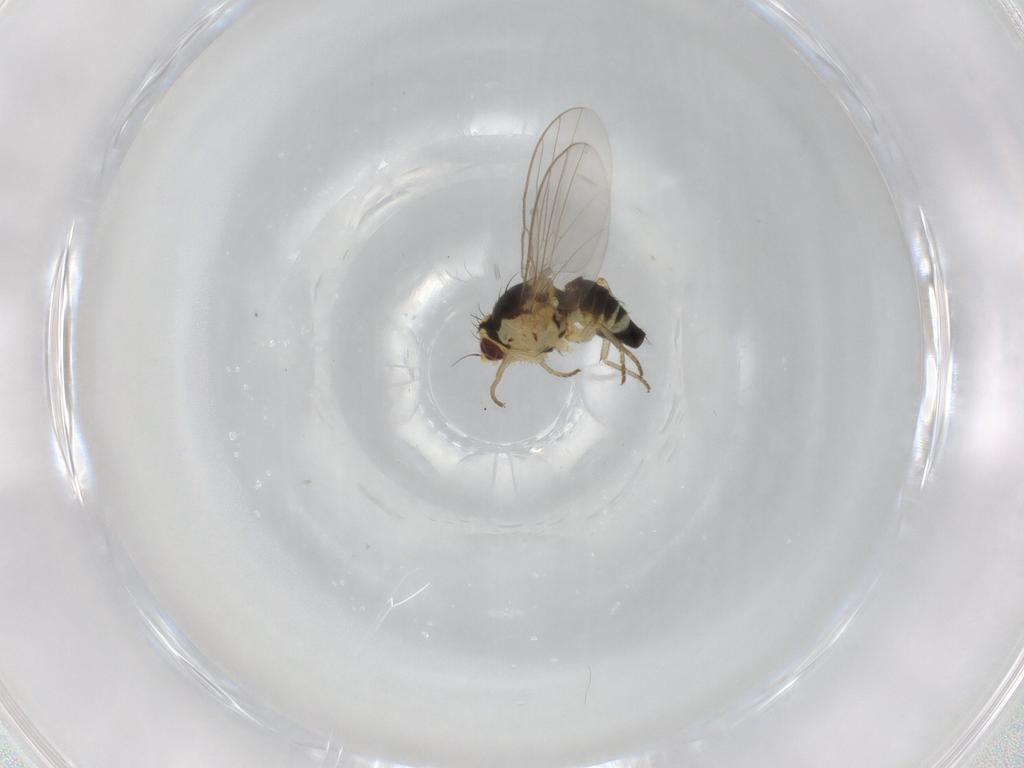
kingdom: Animalia
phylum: Arthropoda
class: Insecta
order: Diptera
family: Agromyzidae
